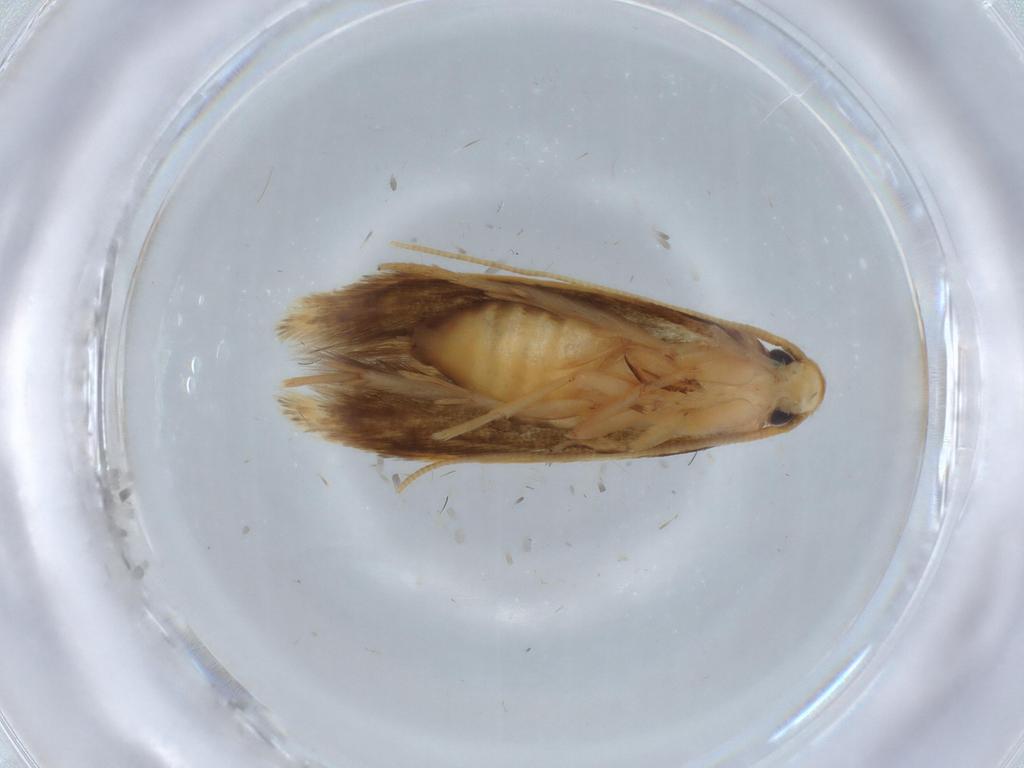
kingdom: Animalia
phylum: Arthropoda
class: Insecta
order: Lepidoptera
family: Tineidae
